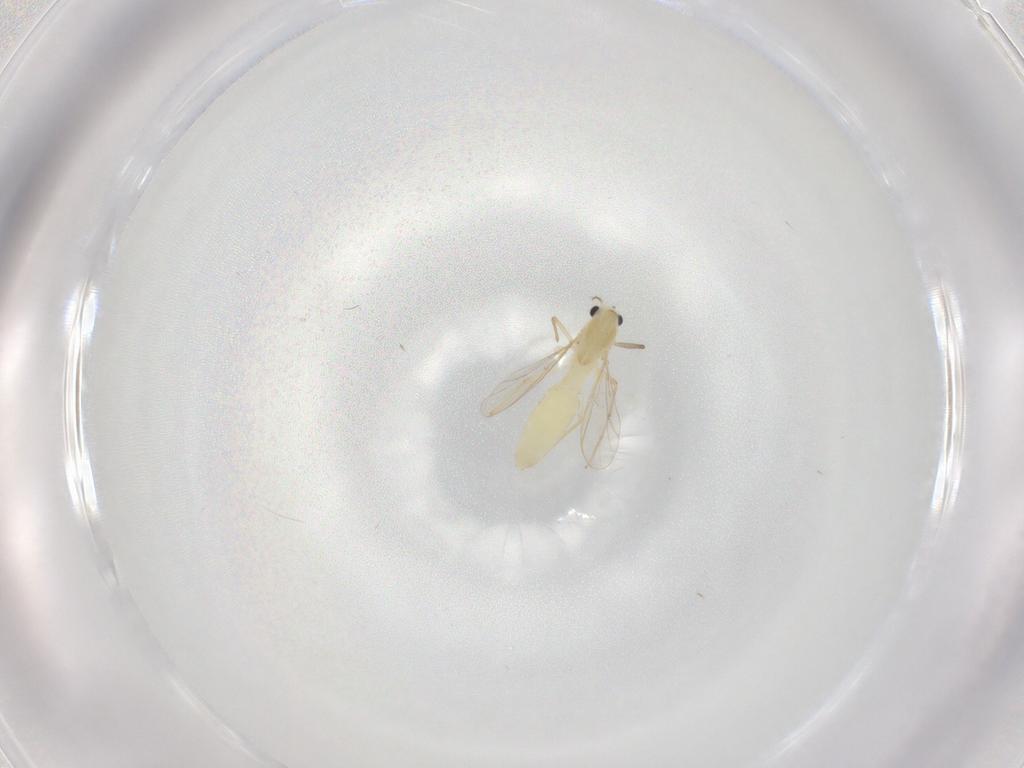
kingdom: Animalia
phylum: Arthropoda
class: Insecta
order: Diptera
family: Chironomidae
